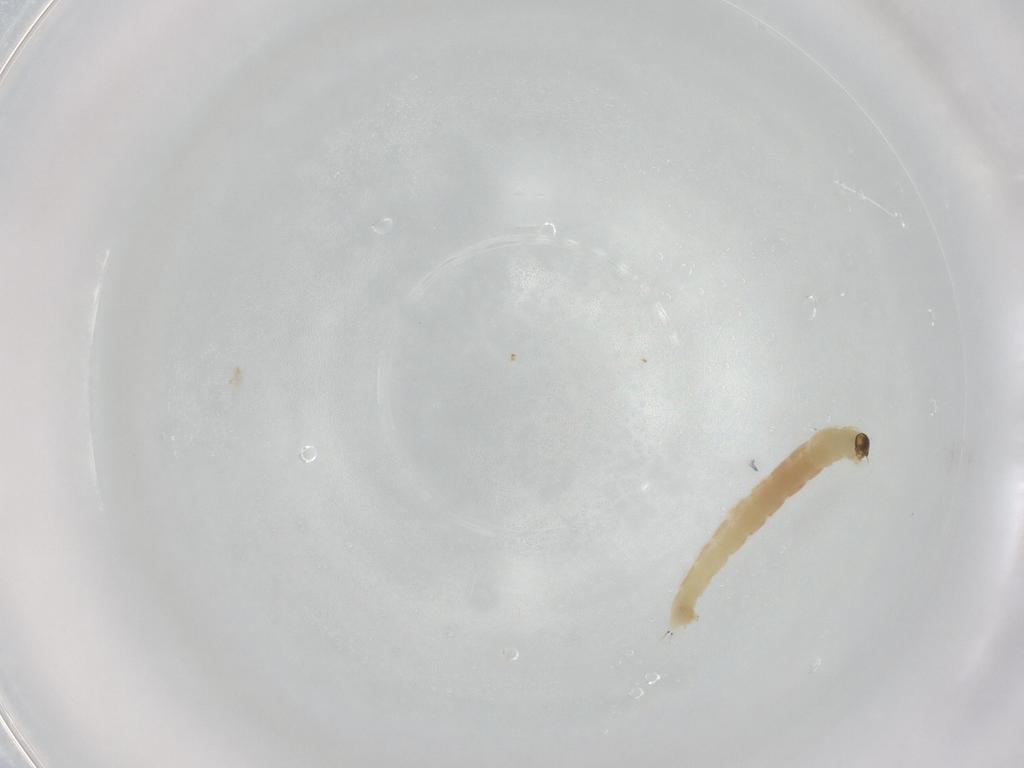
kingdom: Animalia
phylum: Arthropoda
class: Insecta
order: Diptera
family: Chironomidae
